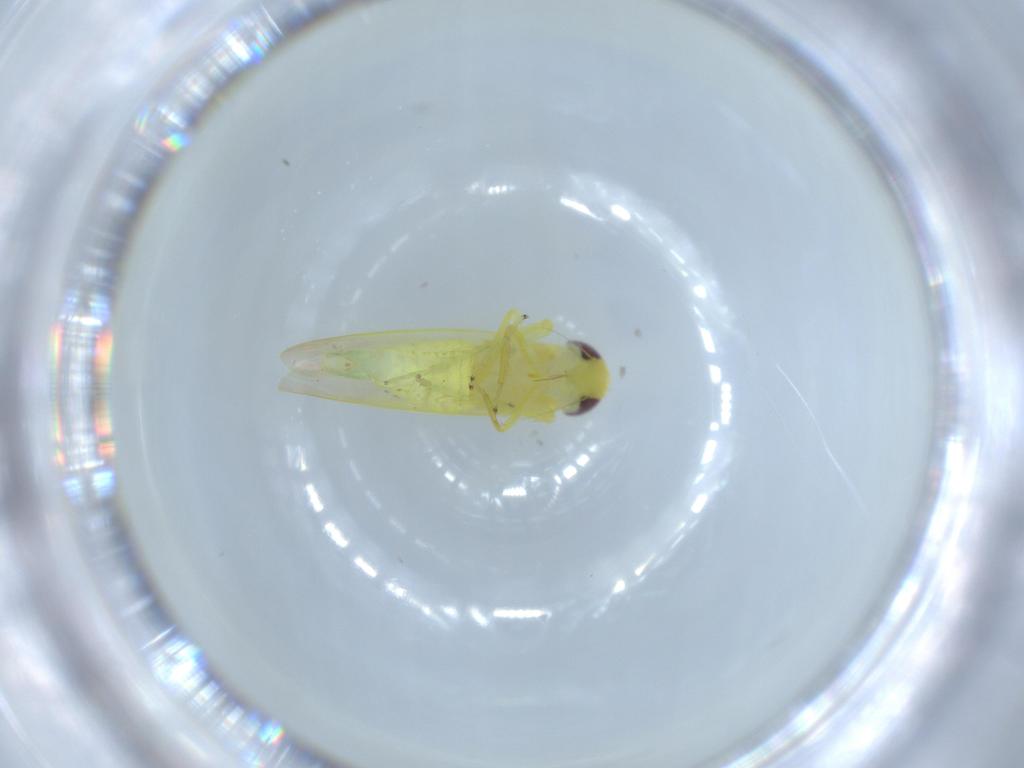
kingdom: Animalia
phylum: Arthropoda
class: Insecta
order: Hemiptera
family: Cicadellidae
